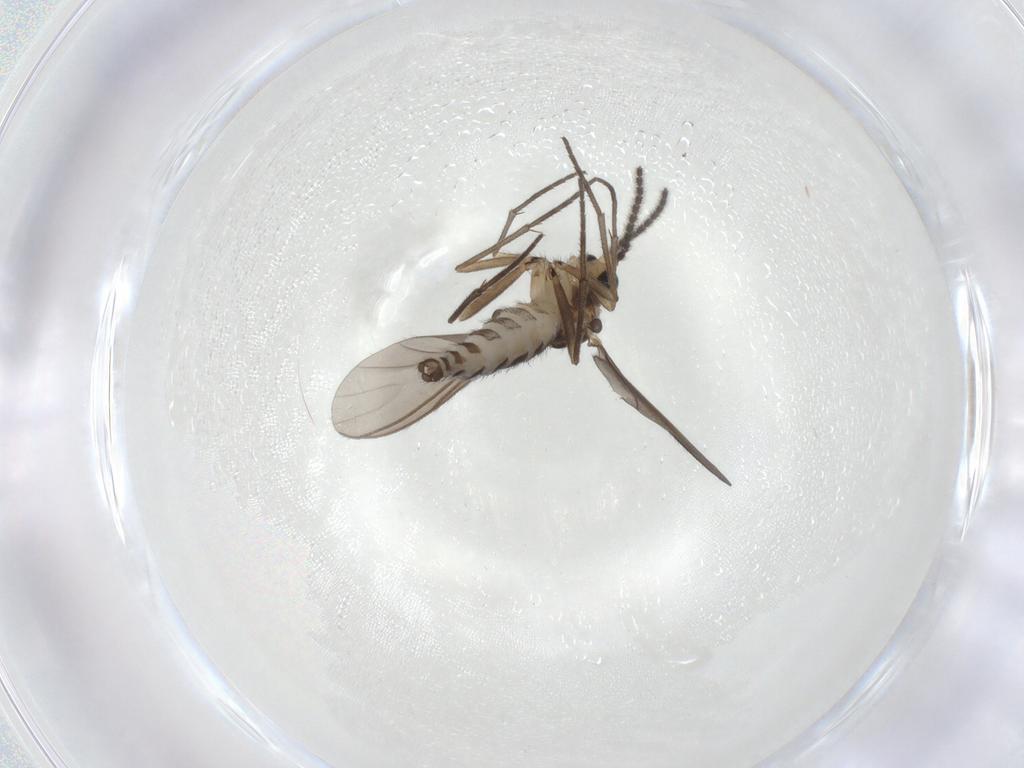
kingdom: Animalia
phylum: Arthropoda
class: Insecta
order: Diptera
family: Sciaridae
